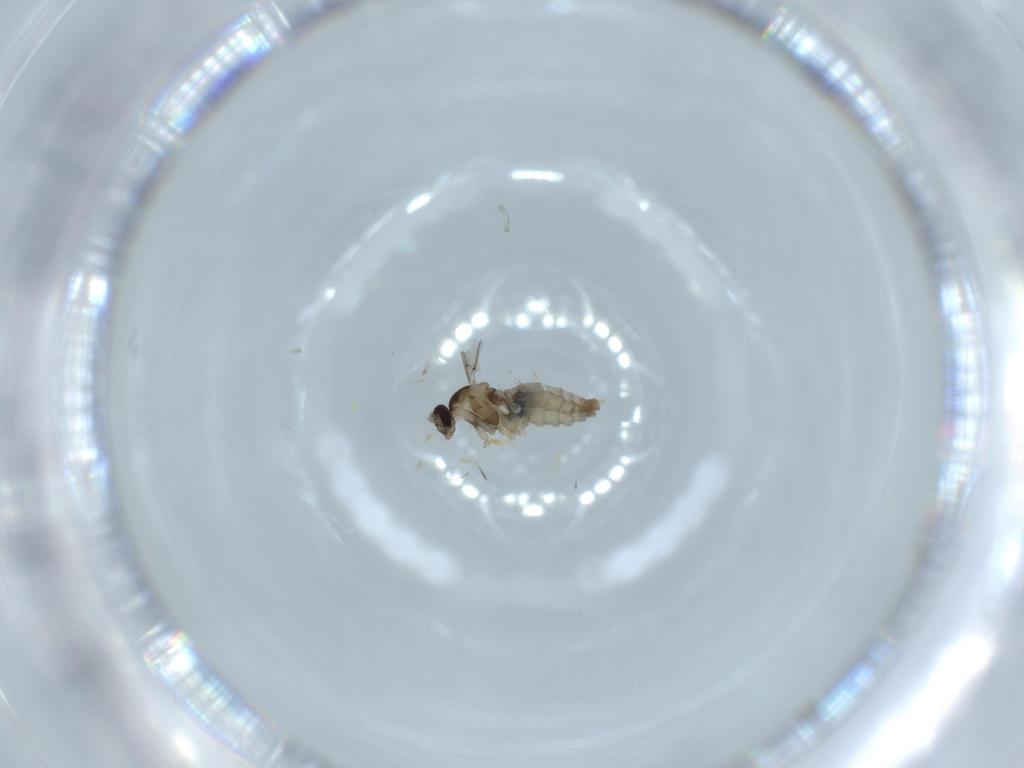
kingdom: Animalia
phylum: Arthropoda
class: Insecta
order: Diptera
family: Cecidomyiidae
